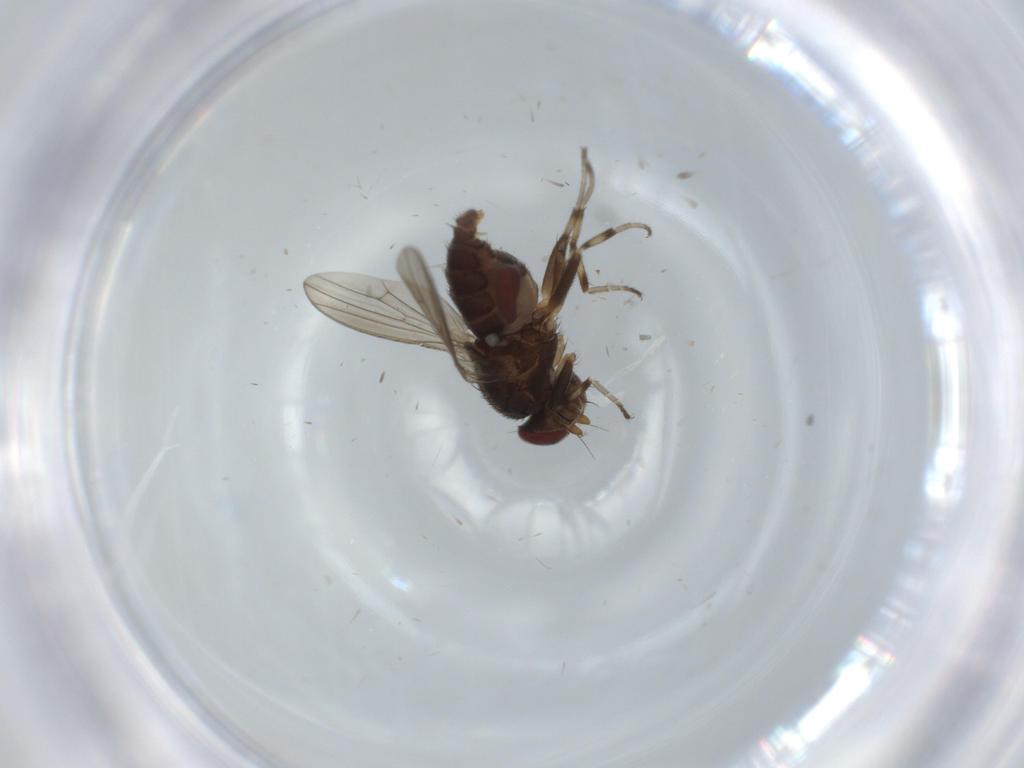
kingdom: Animalia
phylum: Arthropoda
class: Insecta
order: Diptera
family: Heleomyzidae
